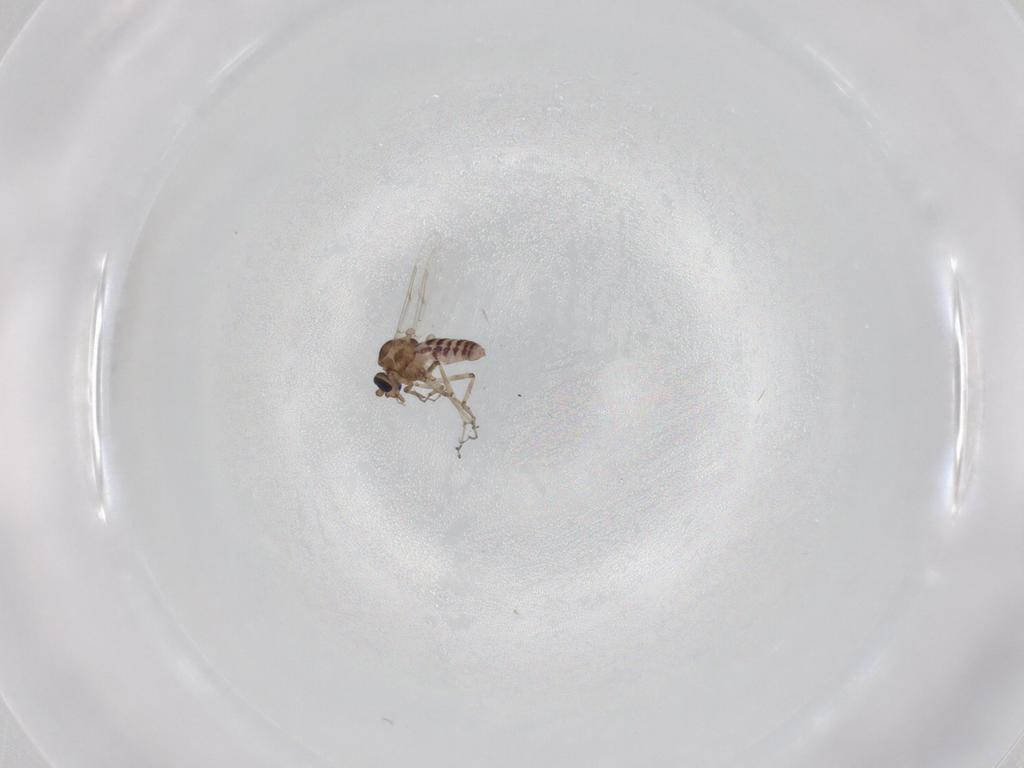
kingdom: Animalia
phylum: Arthropoda
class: Insecta
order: Diptera
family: Ceratopogonidae
